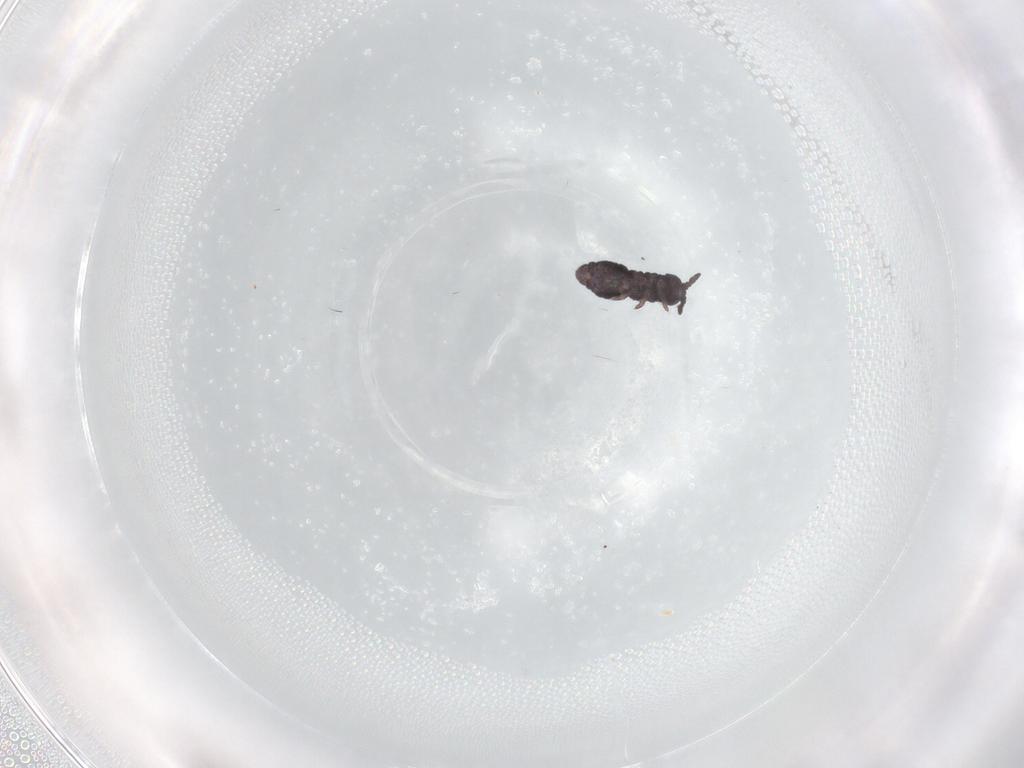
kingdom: Animalia
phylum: Arthropoda
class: Collembola
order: Poduromorpha
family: Hypogastruridae
